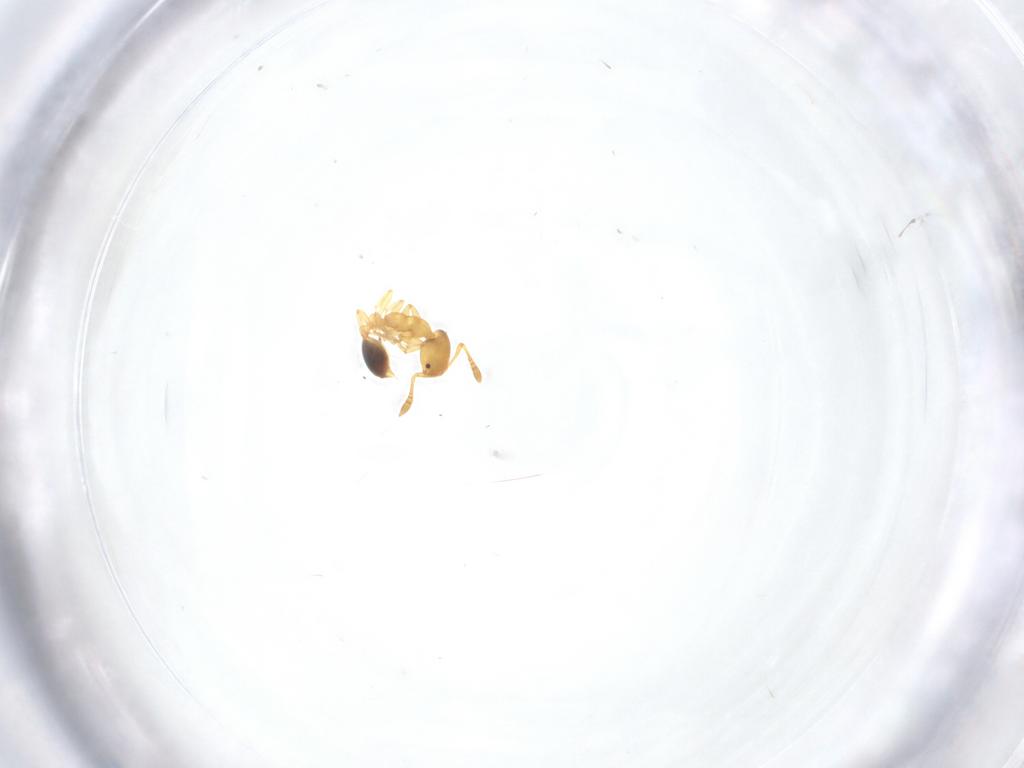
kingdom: Animalia
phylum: Arthropoda
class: Insecta
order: Hymenoptera
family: Formicidae
